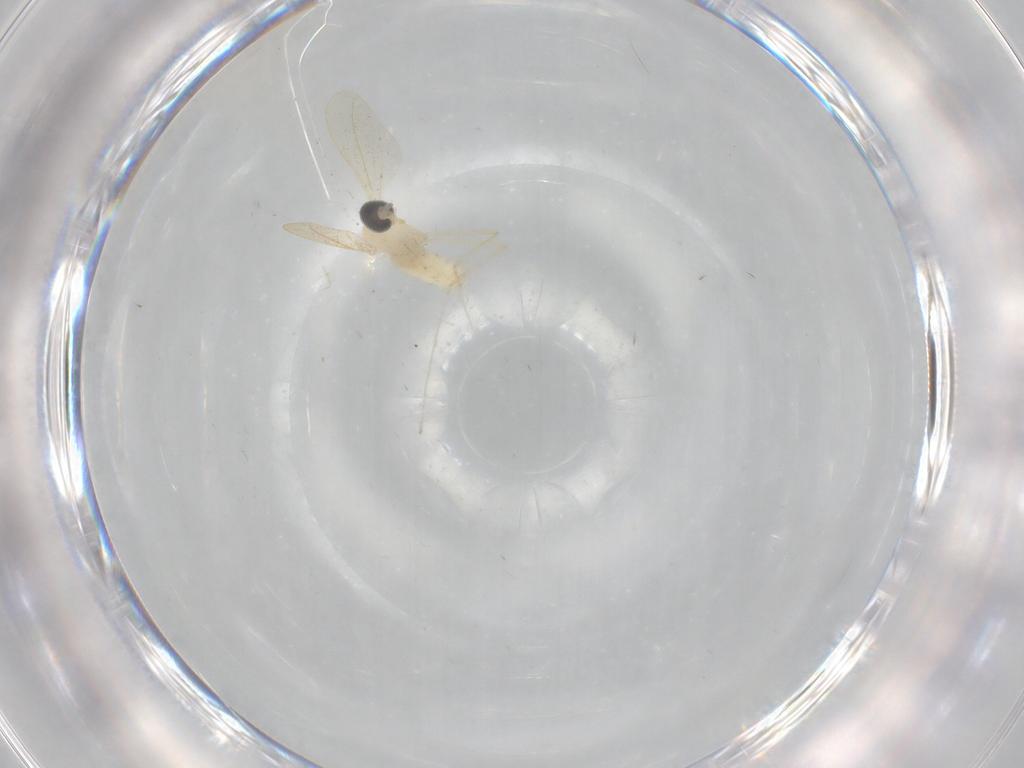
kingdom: Animalia
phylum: Arthropoda
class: Insecta
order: Diptera
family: Cecidomyiidae
